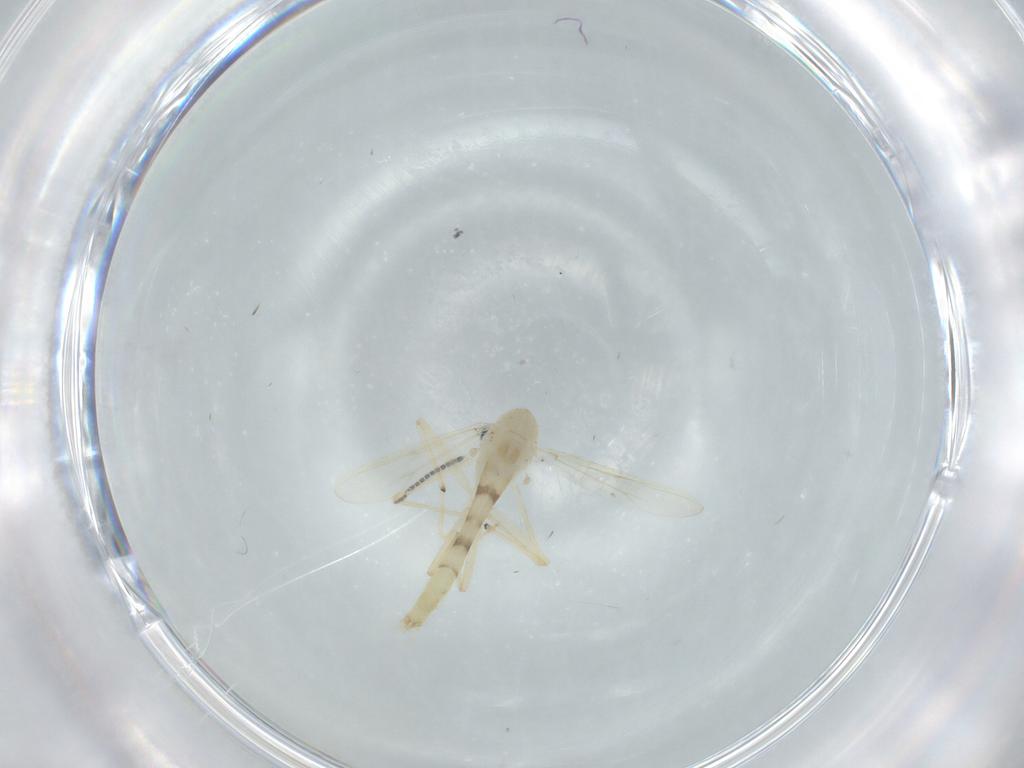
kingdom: Animalia
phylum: Arthropoda
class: Insecta
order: Diptera
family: Chironomidae
